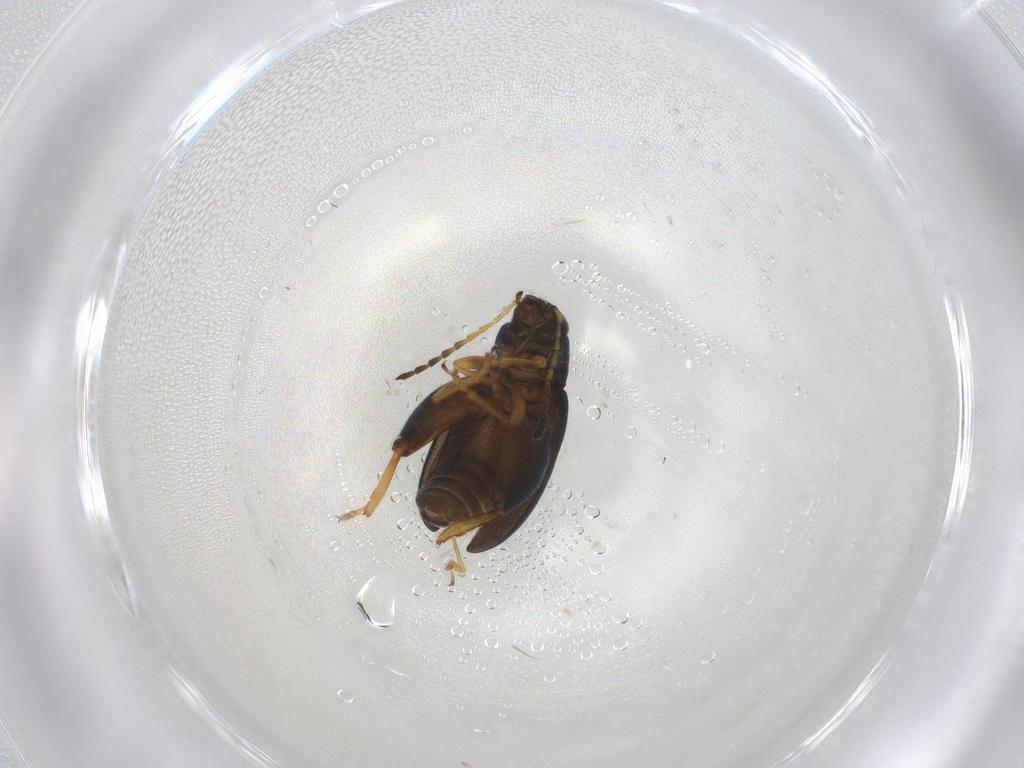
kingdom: Animalia
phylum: Arthropoda
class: Insecta
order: Coleoptera
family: Chrysomelidae
